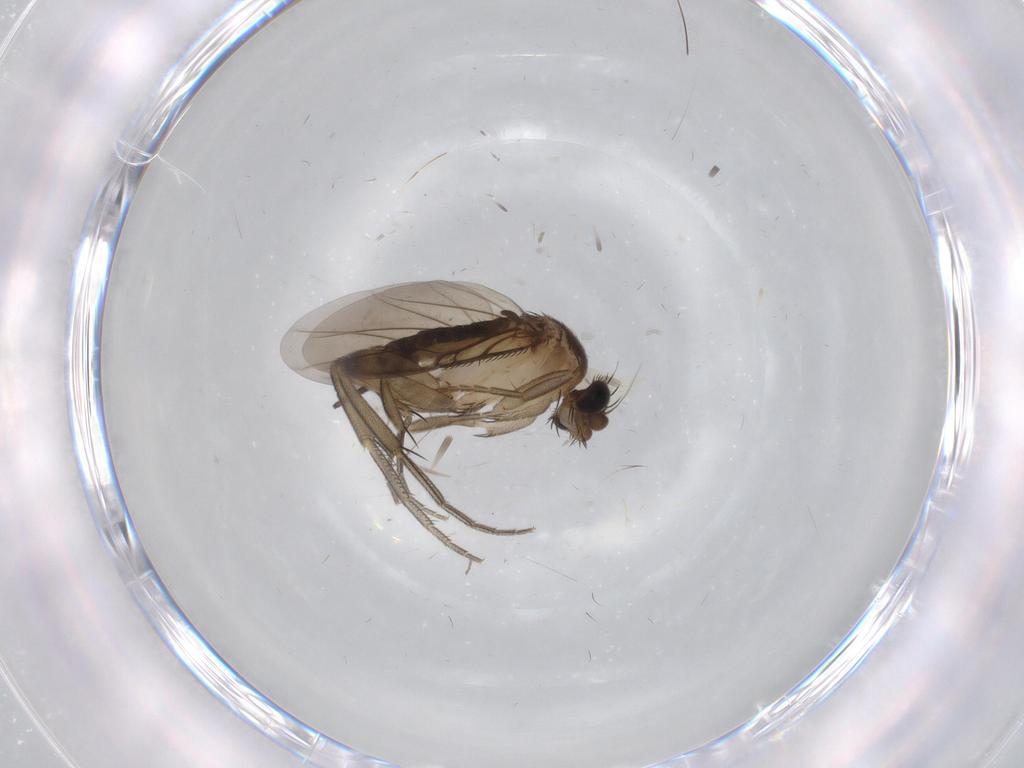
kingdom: Animalia
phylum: Arthropoda
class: Insecta
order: Diptera
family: Phoridae
